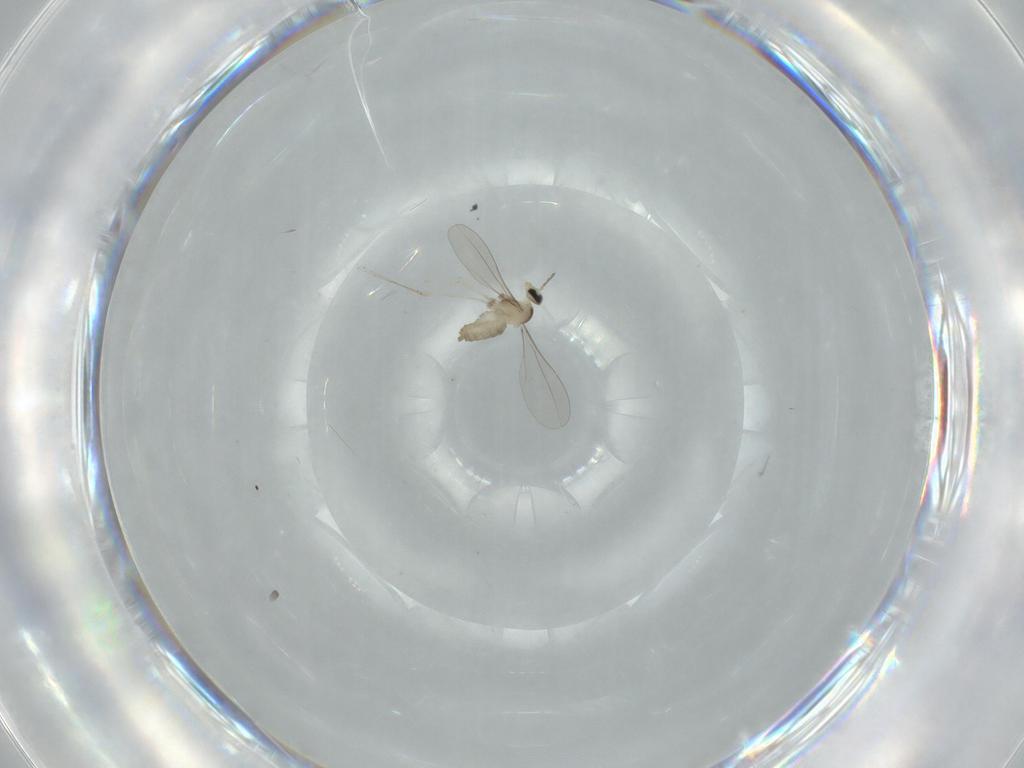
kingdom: Animalia
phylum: Arthropoda
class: Insecta
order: Diptera
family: Cecidomyiidae
